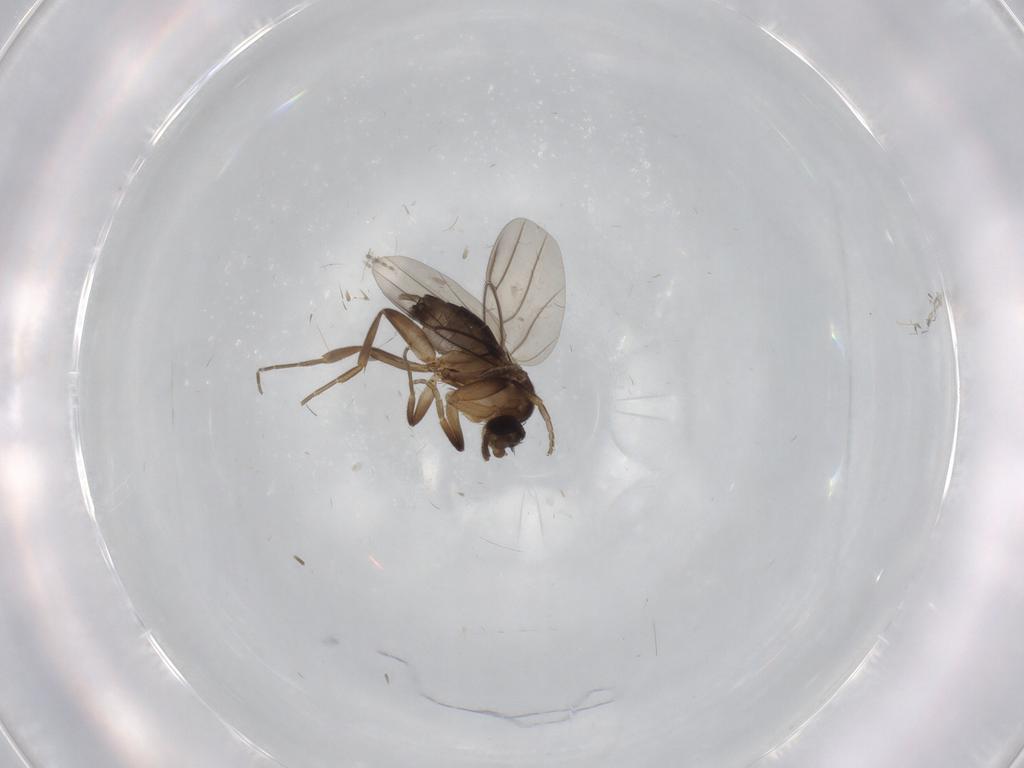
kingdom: Animalia
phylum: Arthropoda
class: Insecta
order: Diptera
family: Phoridae
